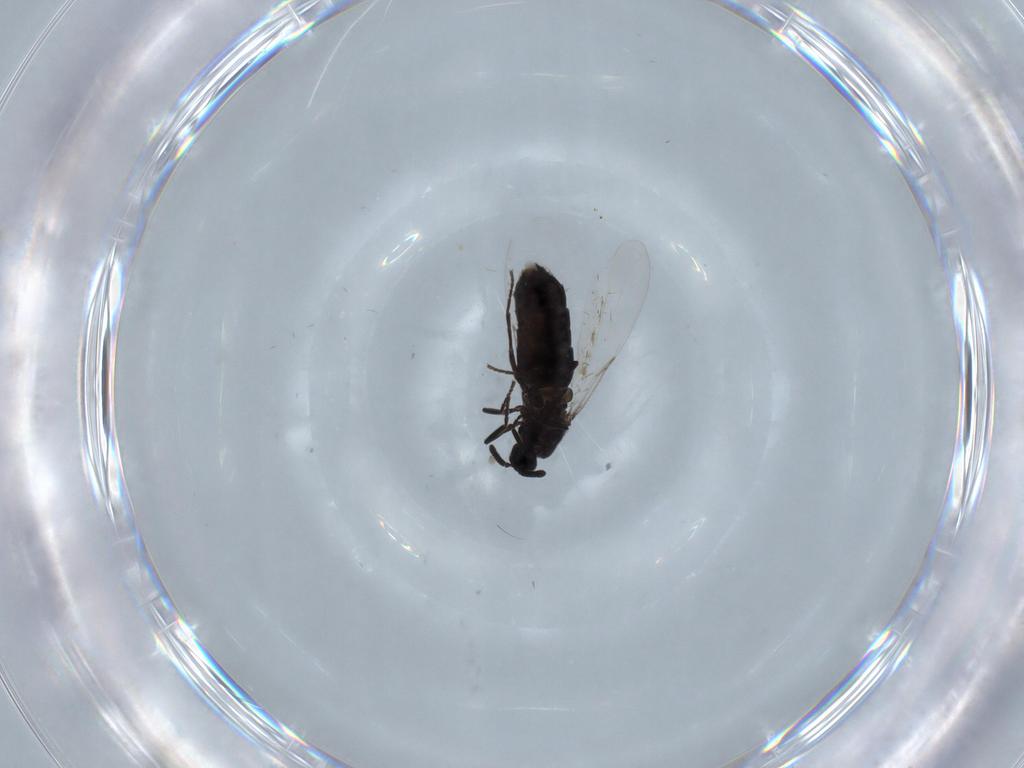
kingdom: Animalia
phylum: Arthropoda
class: Insecta
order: Diptera
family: Scatopsidae
